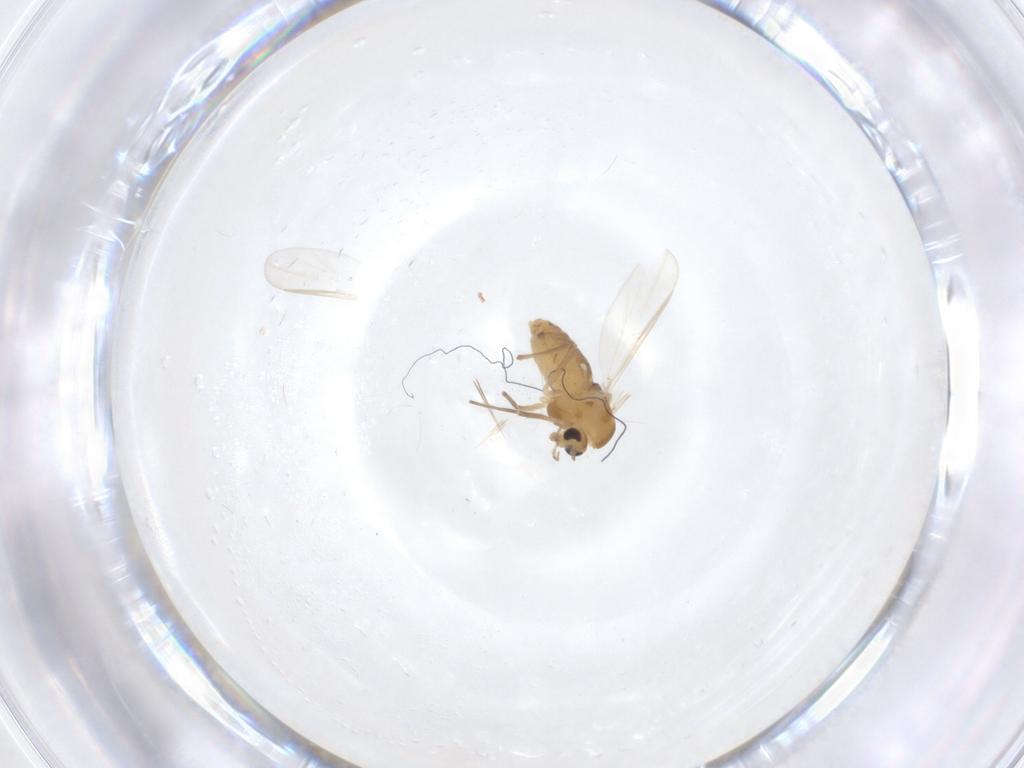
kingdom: Animalia
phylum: Arthropoda
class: Insecta
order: Diptera
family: Chironomidae
